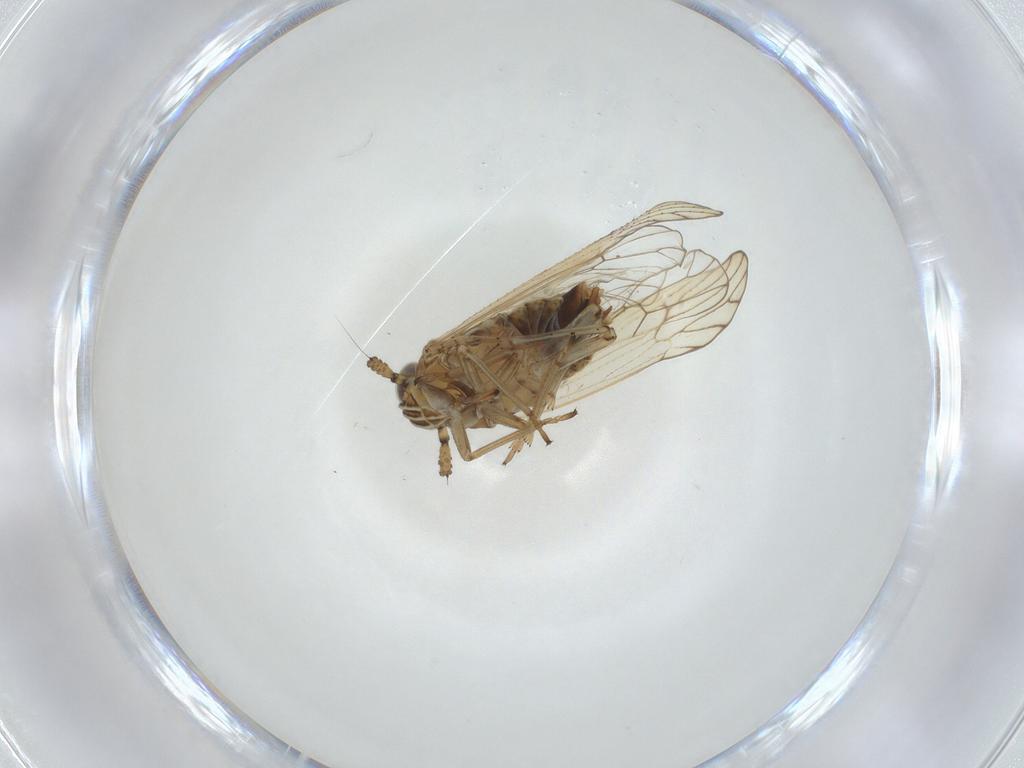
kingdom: Animalia
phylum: Arthropoda
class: Insecta
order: Hemiptera
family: Delphacidae
